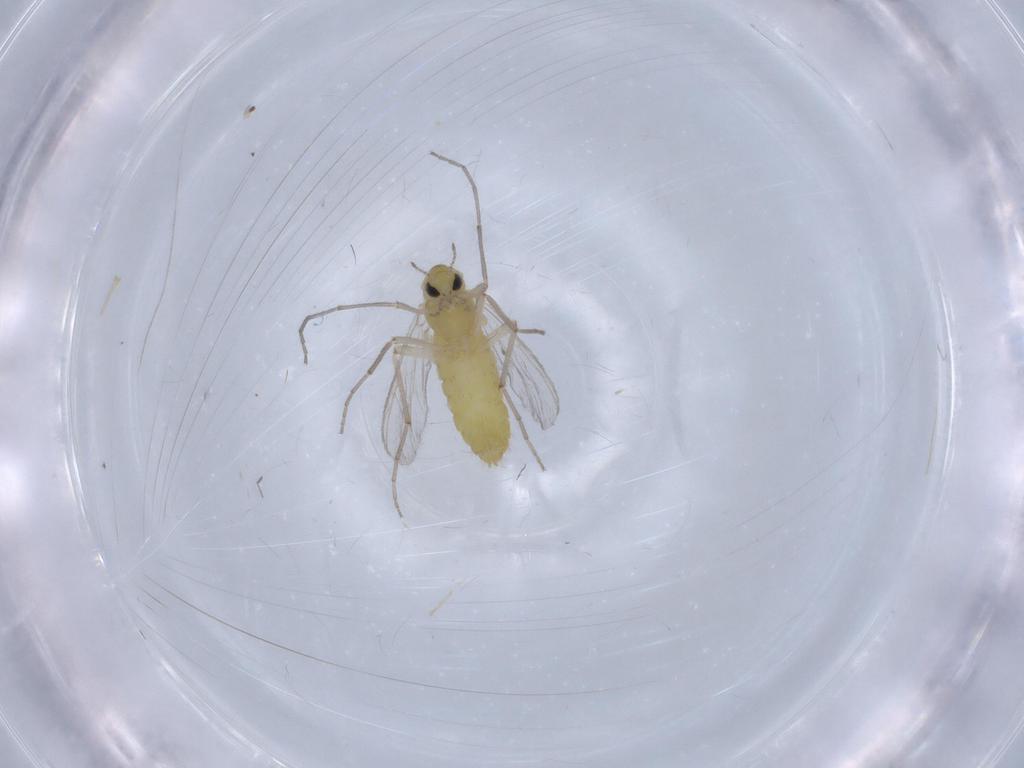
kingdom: Animalia
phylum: Arthropoda
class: Insecta
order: Diptera
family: Chironomidae
